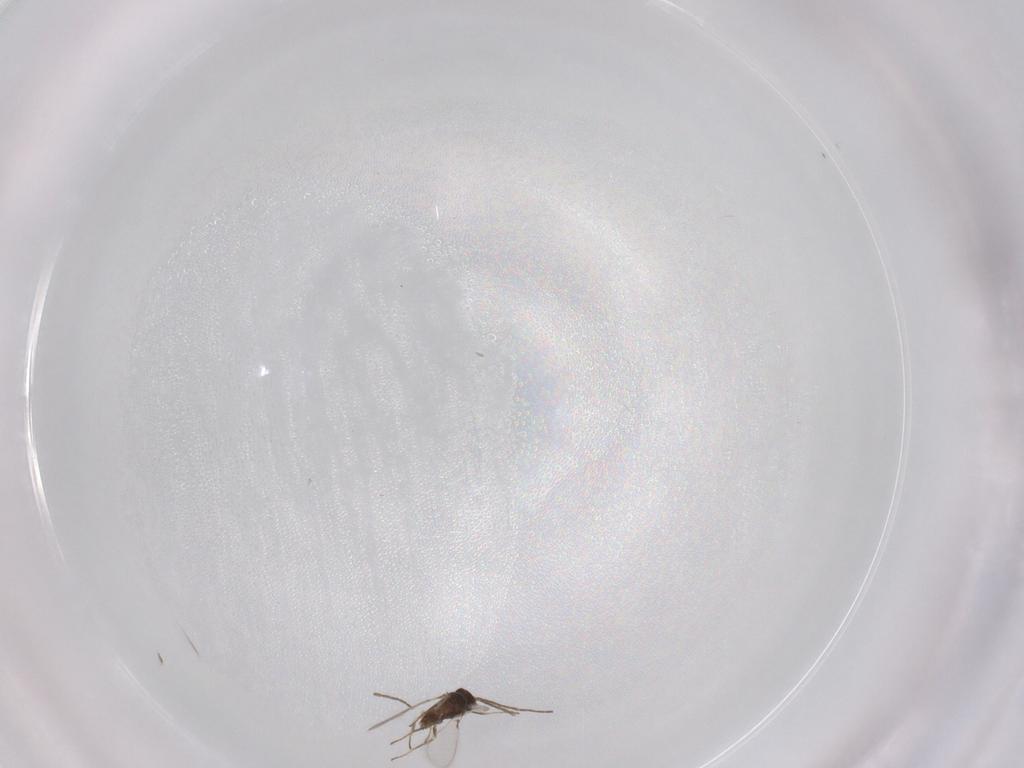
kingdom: Animalia
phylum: Arthropoda
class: Insecta
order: Hymenoptera
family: Mymaridae
